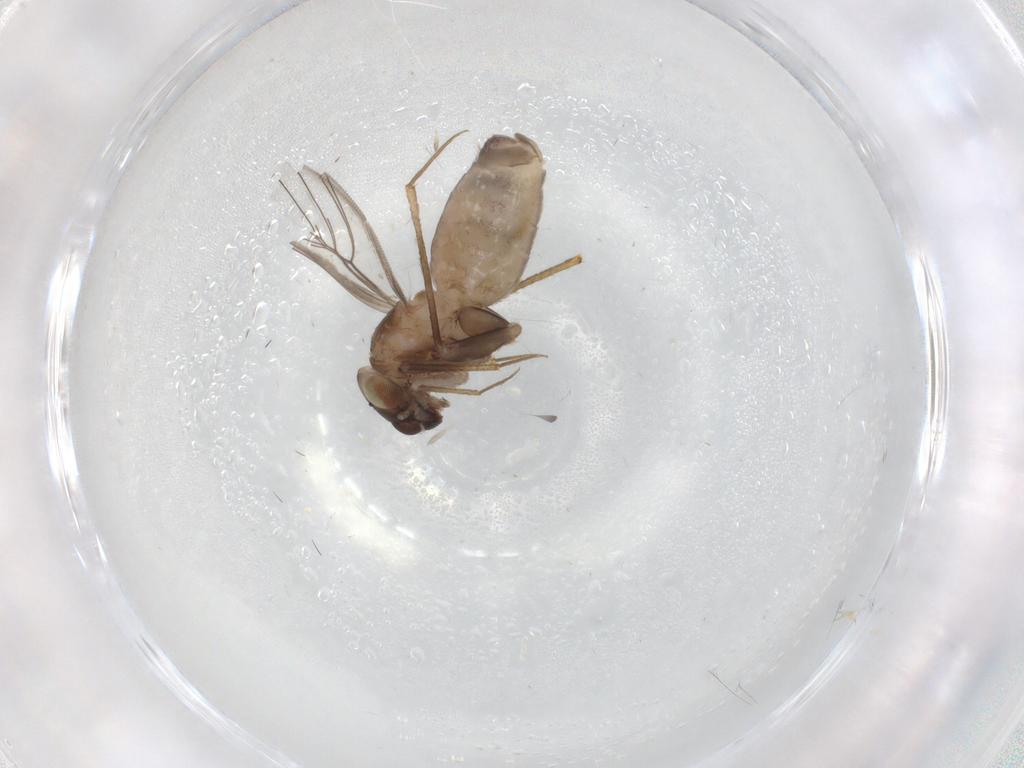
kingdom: Animalia
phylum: Arthropoda
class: Insecta
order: Psocodea
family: Lepidopsocidae
